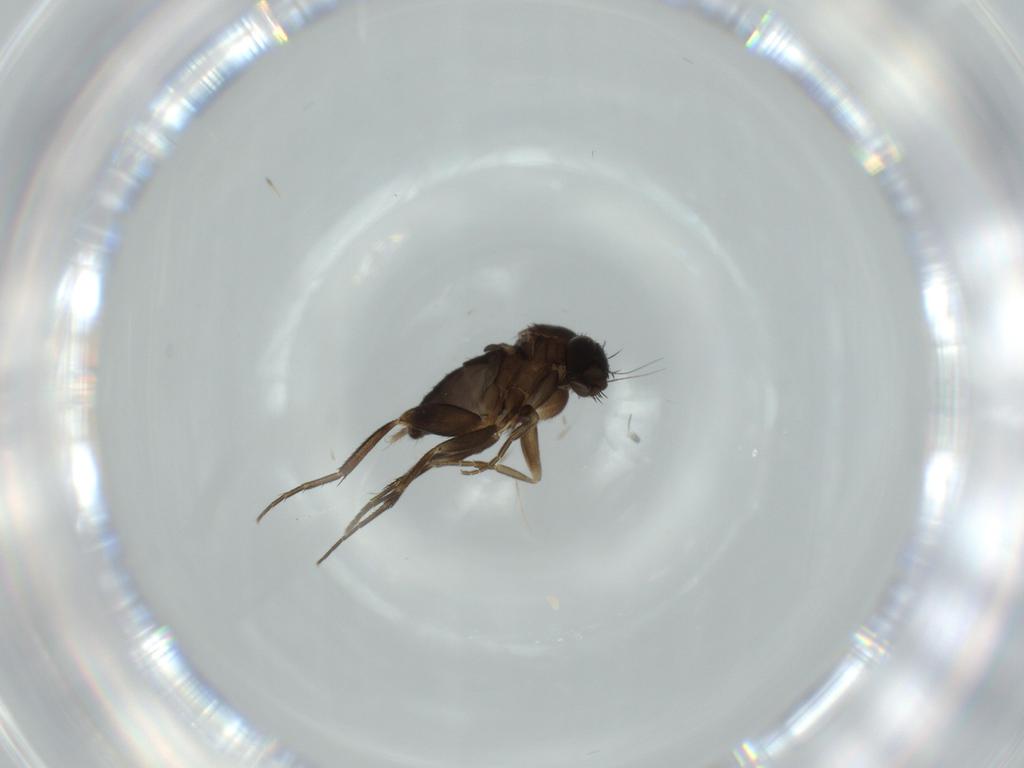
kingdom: Animalia
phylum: Arthropoda
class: Insecta
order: Diptera
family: Phoridae
